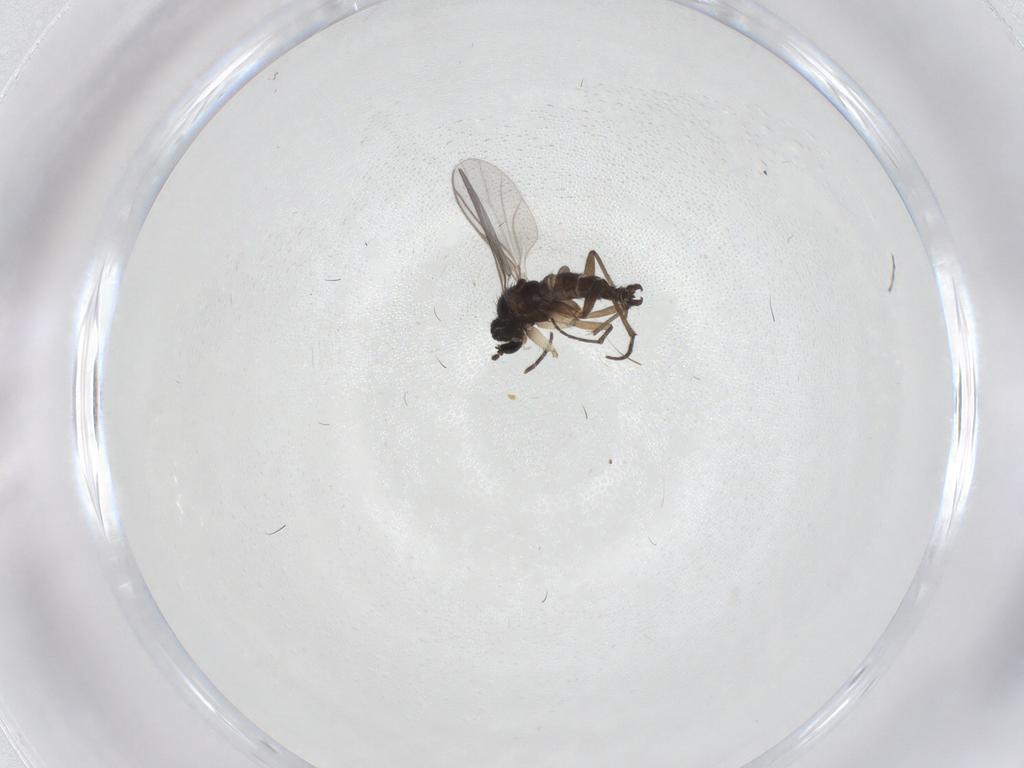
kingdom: Animalia
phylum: Arthropoda
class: Insecta
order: Diptera
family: Sciaridae
